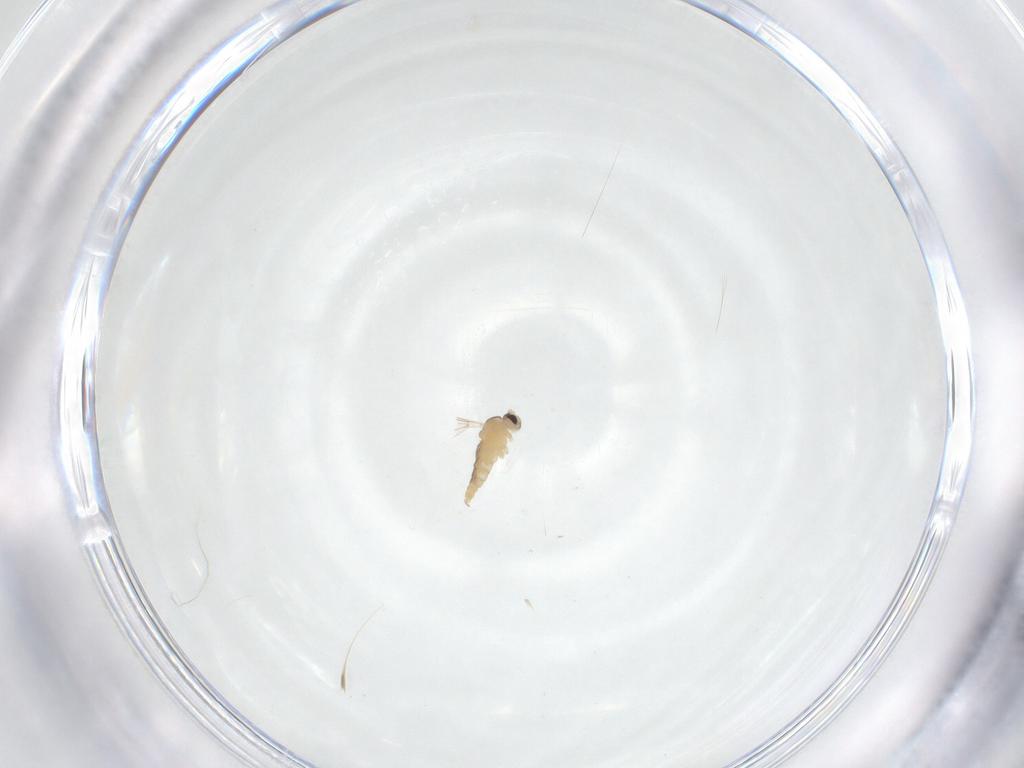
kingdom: Animalia
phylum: Arthropoda
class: Insecta
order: Diptera
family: Cecidomyiidae
